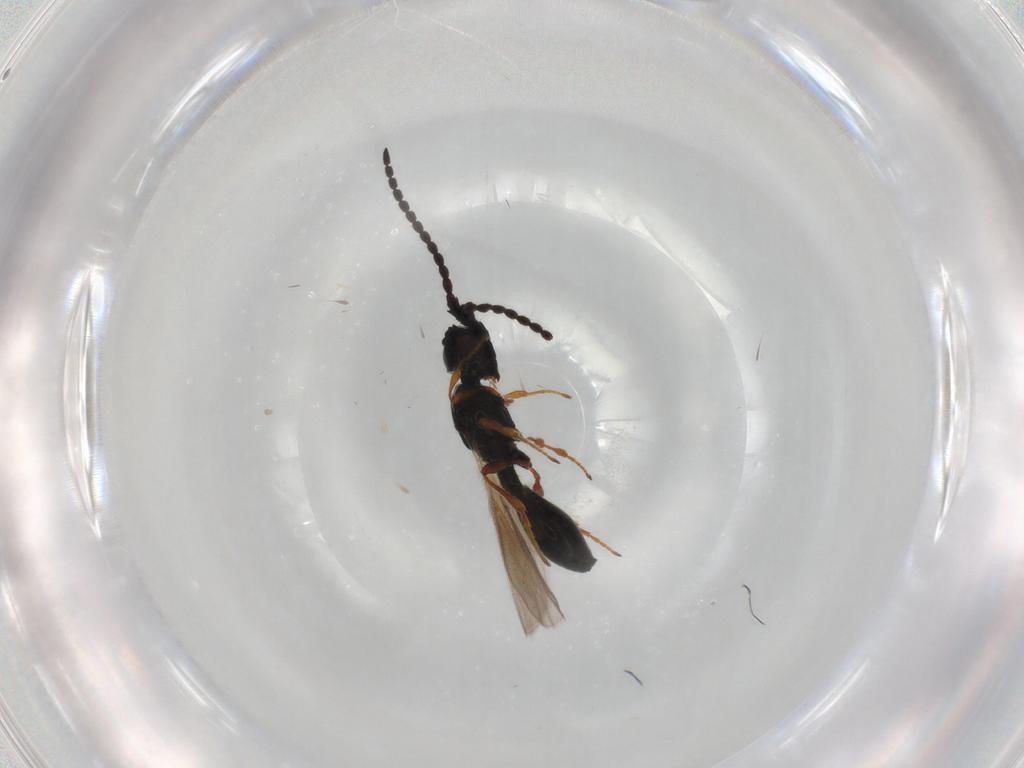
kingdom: Animalia
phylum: Arthropoda
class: Insecta
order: Hymenoptera
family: Diapriidae
